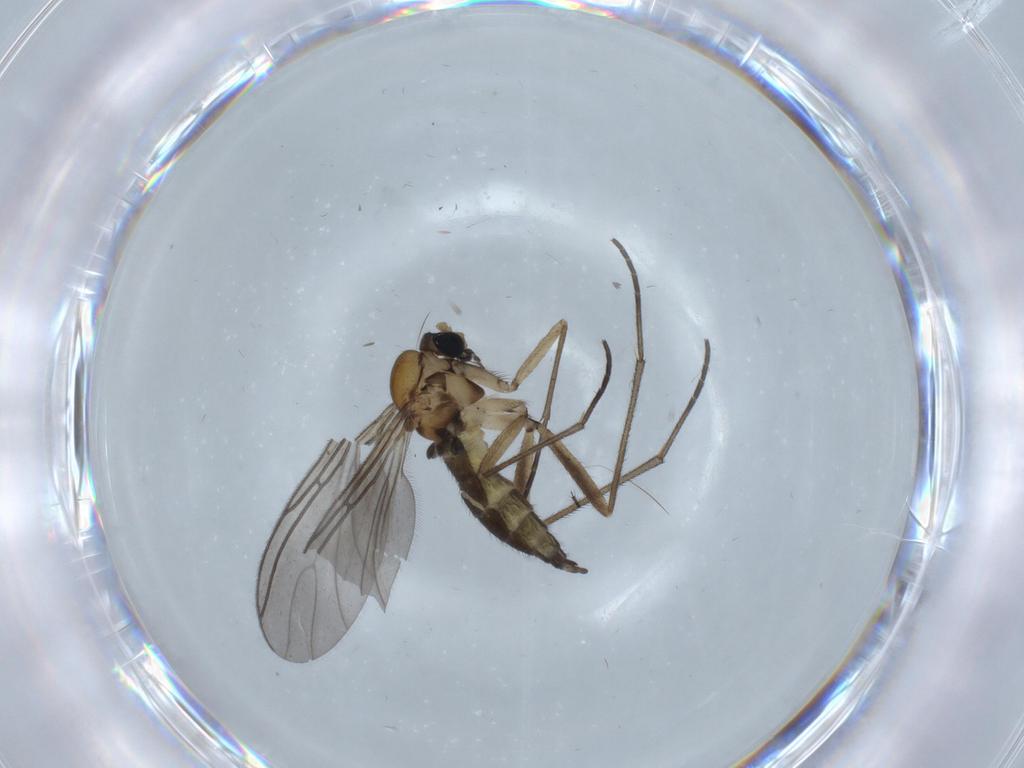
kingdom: Animalia
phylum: Arthropoda
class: Insecta
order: Diptera
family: Sciaridae
